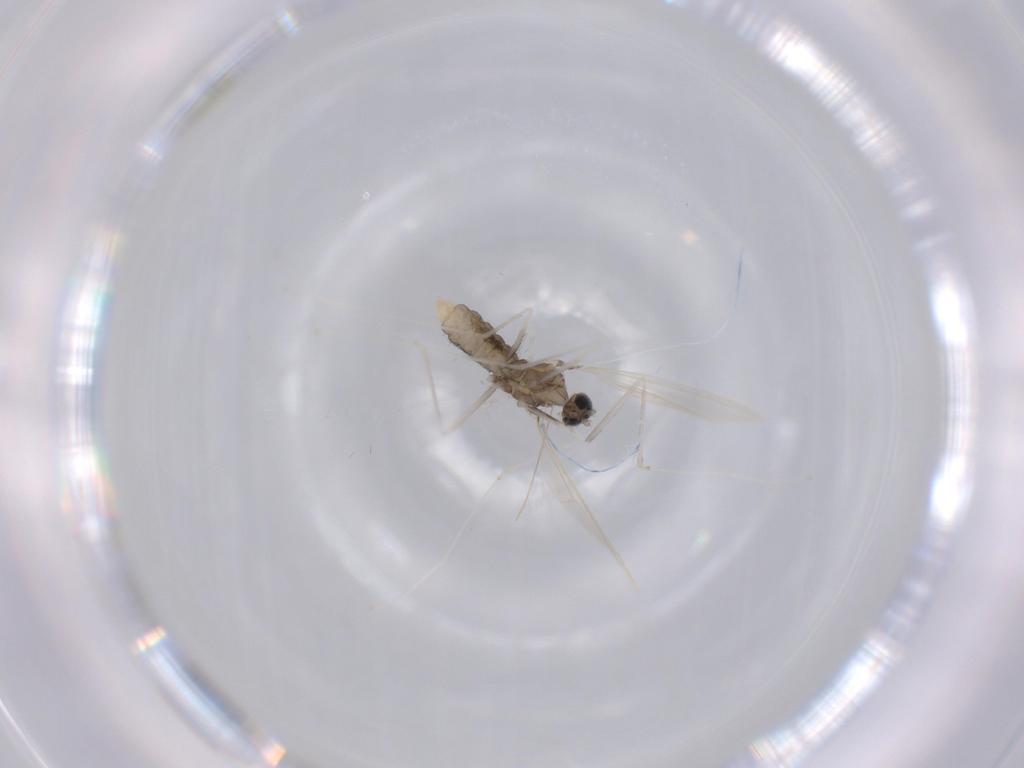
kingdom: Animalia
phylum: Arthropoda
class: Insecta
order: Diptera
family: Cecidomyiidae
